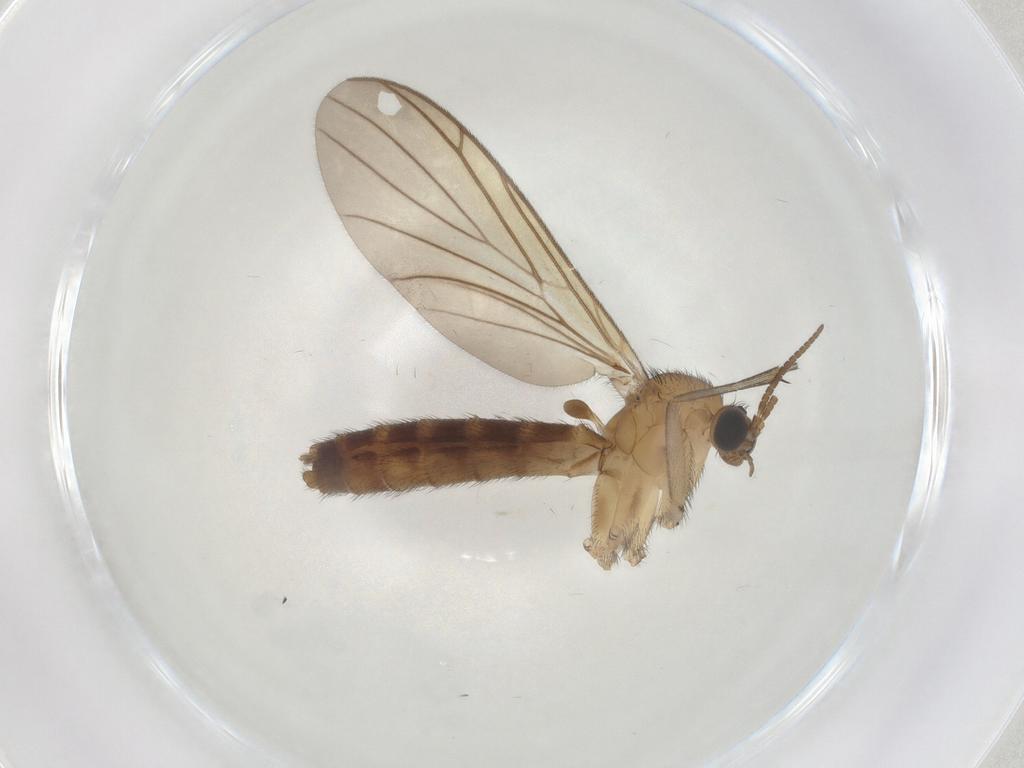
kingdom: Animalia
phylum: Arthropoda
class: Insecta
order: Diptera
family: Keroplatidae
